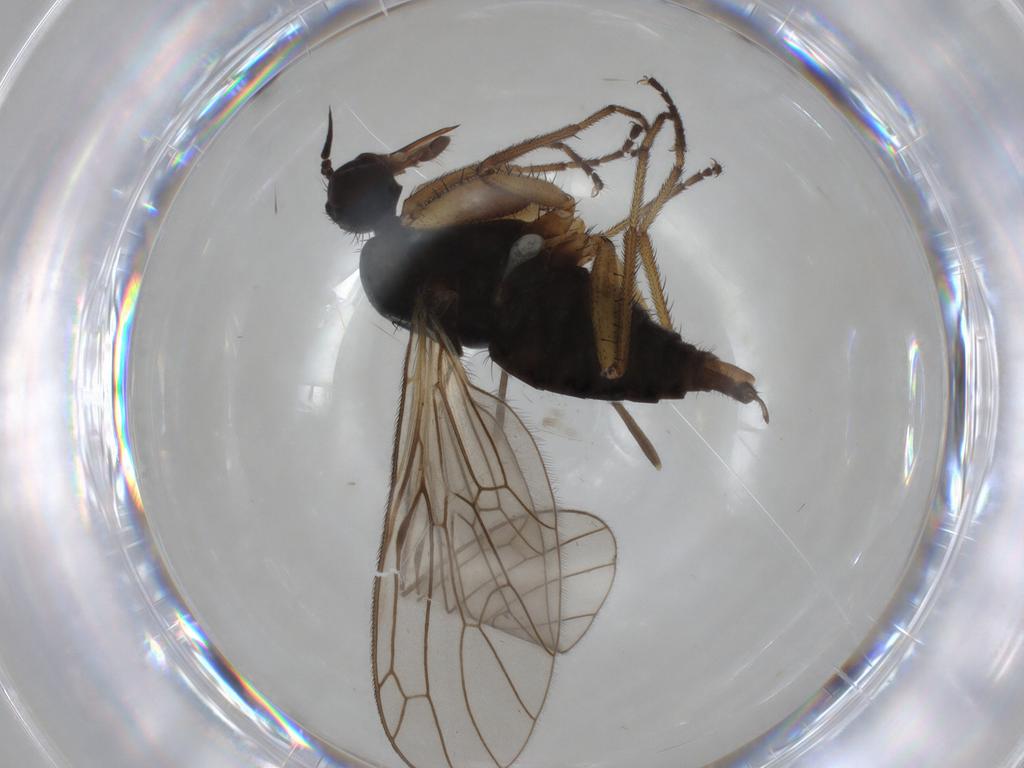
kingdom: Animalia
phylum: Arthropoda
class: Insecta
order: Diptera
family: Chironomidae
